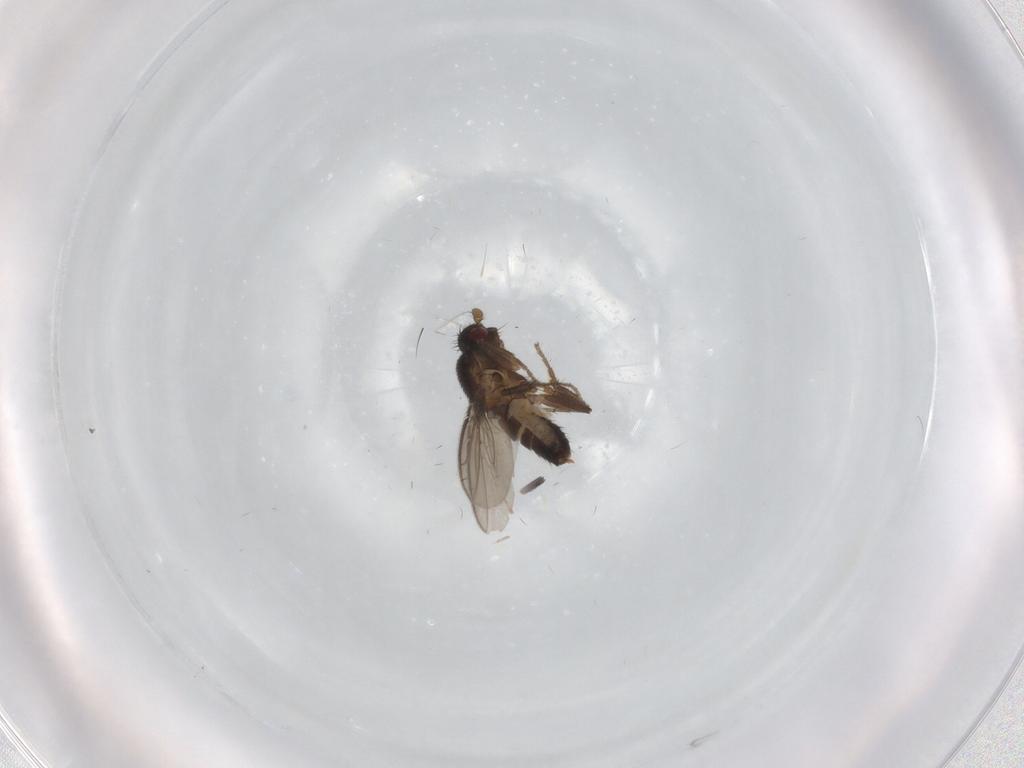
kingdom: Animalia
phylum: Arthropoda
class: Insecta
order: Diptera
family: Sphaeroceridae
